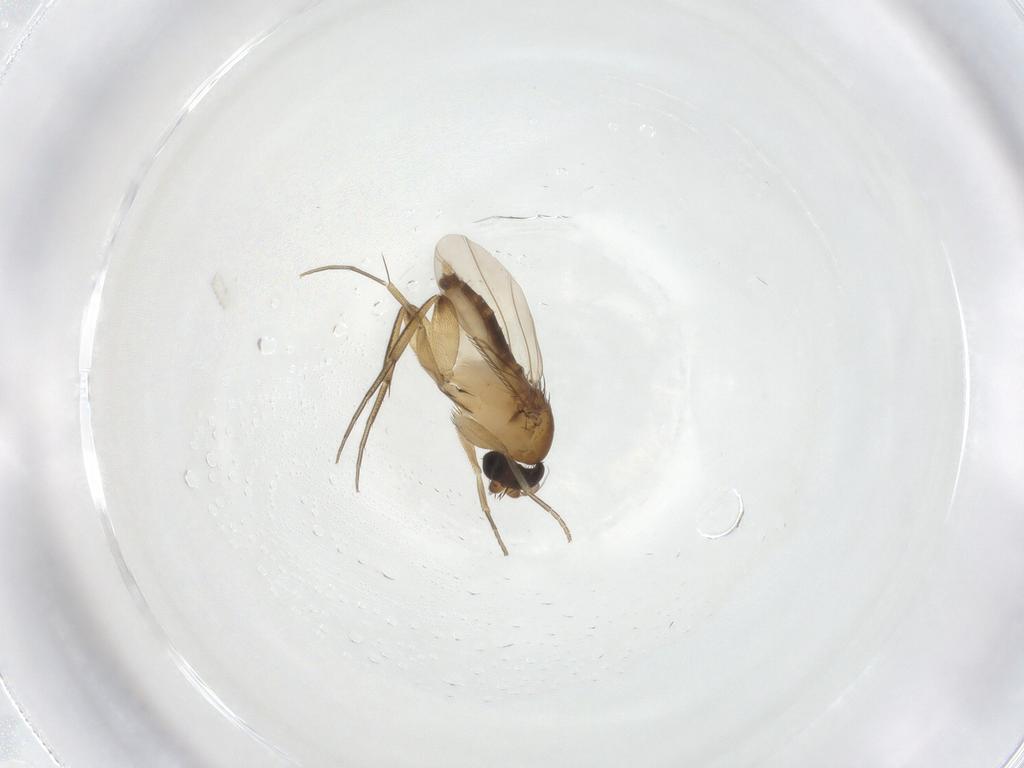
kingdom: Animalia
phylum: Arthropoda
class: Insecta
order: Diptera
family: Phoridae
